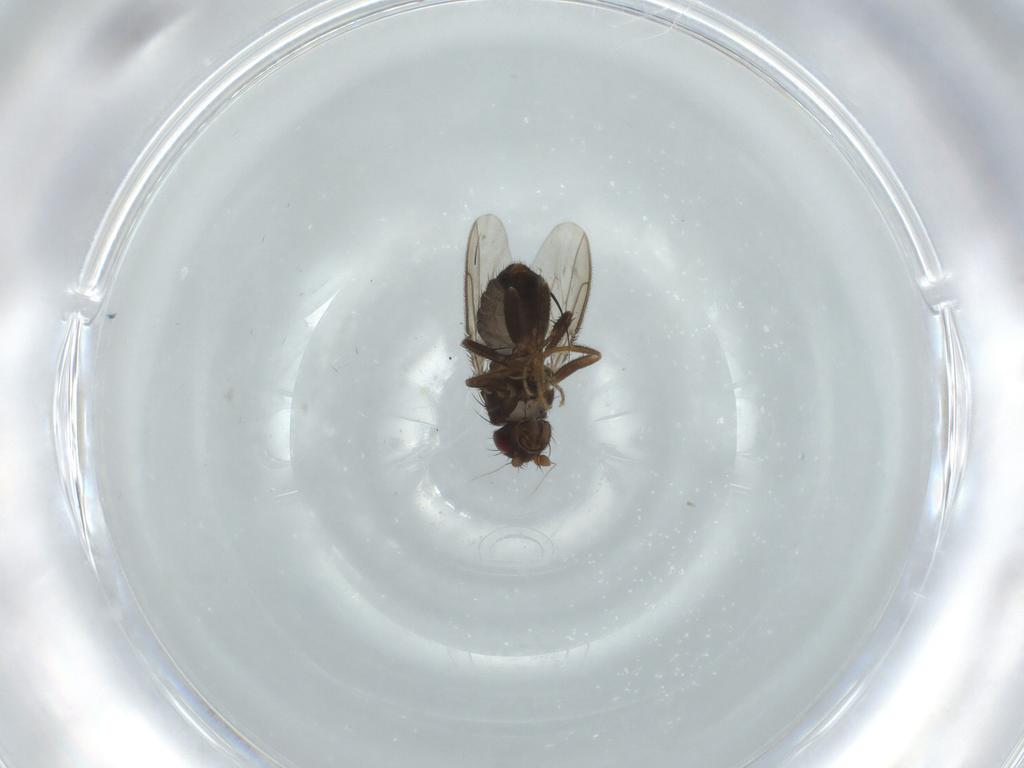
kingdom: Animalia
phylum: Arthropoda
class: Insecta
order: Diptera
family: Sphaeroceridae
